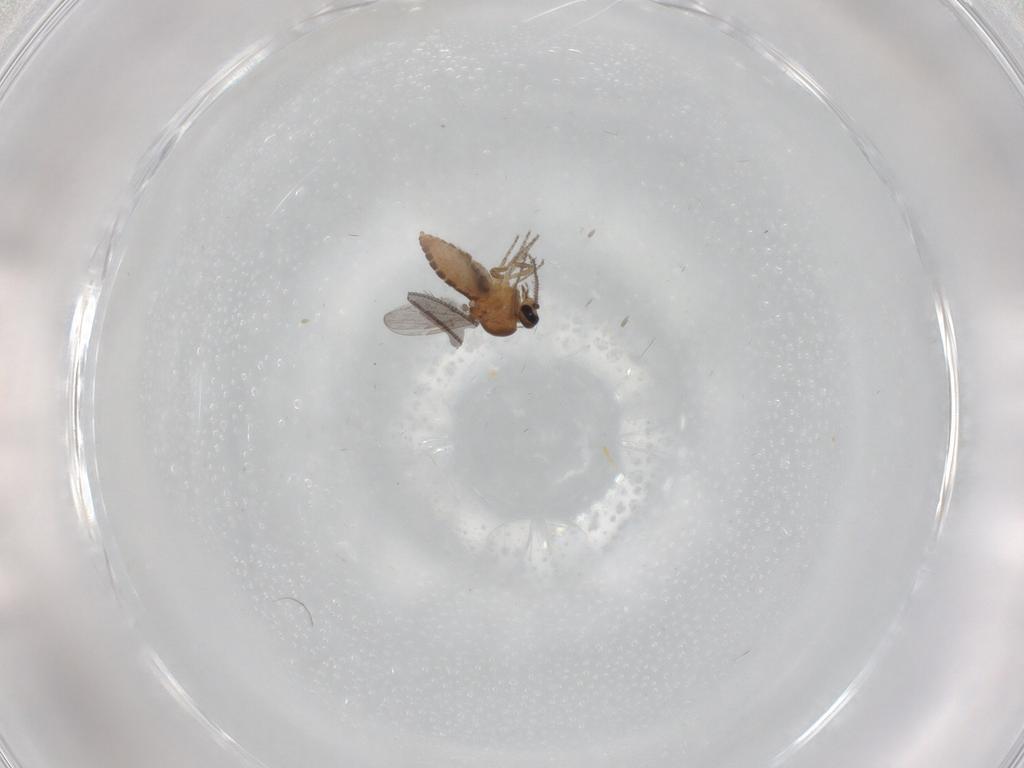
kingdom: Animalia
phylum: Arthropoda
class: Insecta
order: Diptera
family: Ceratopogonidae
